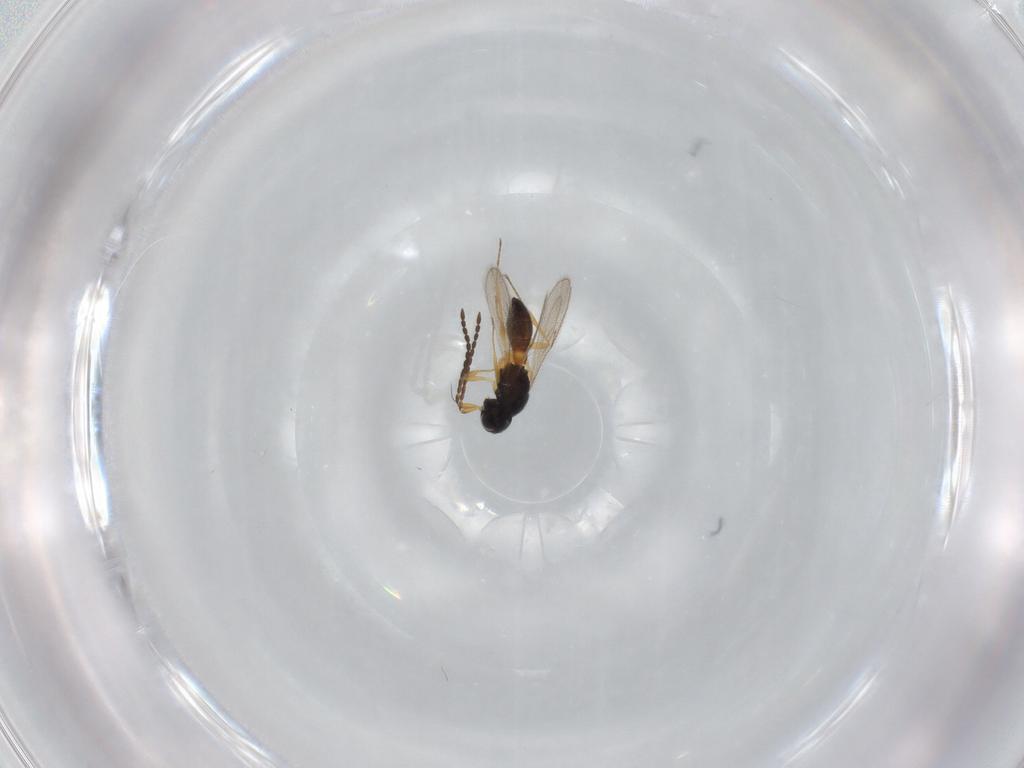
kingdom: Animalia
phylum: Arthropoda
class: Insecta
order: Hymenoptera
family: Scelionidae
